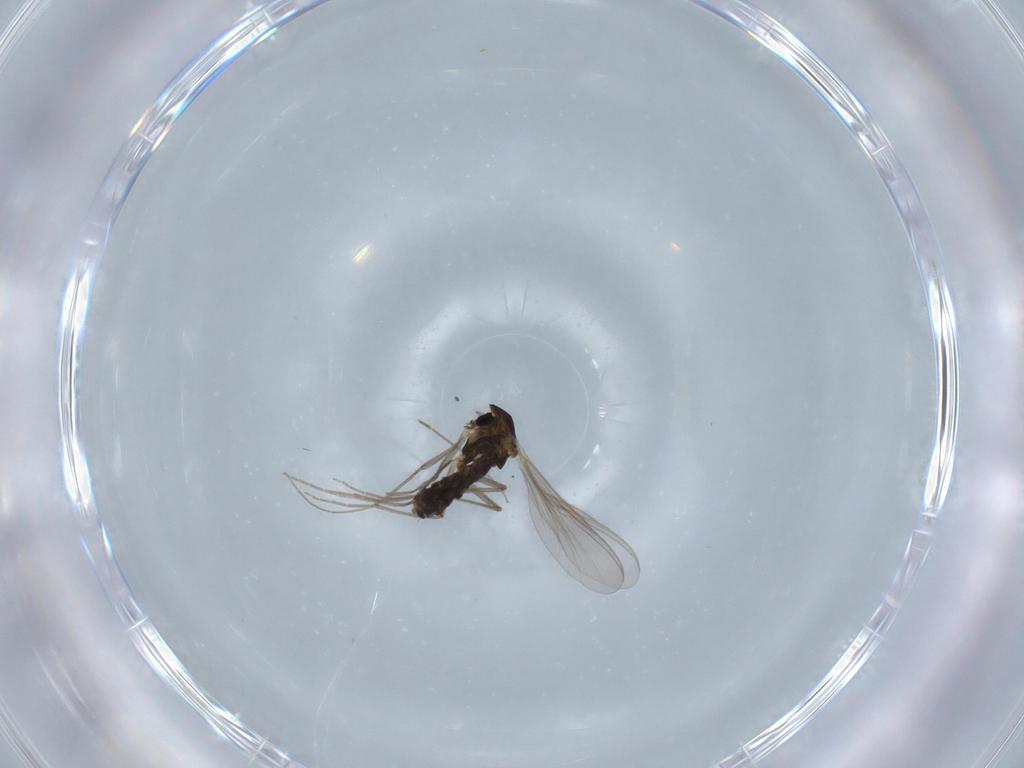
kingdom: Animalia
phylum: Arthropoda
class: Insecta
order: Diptera
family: Chironomidae
